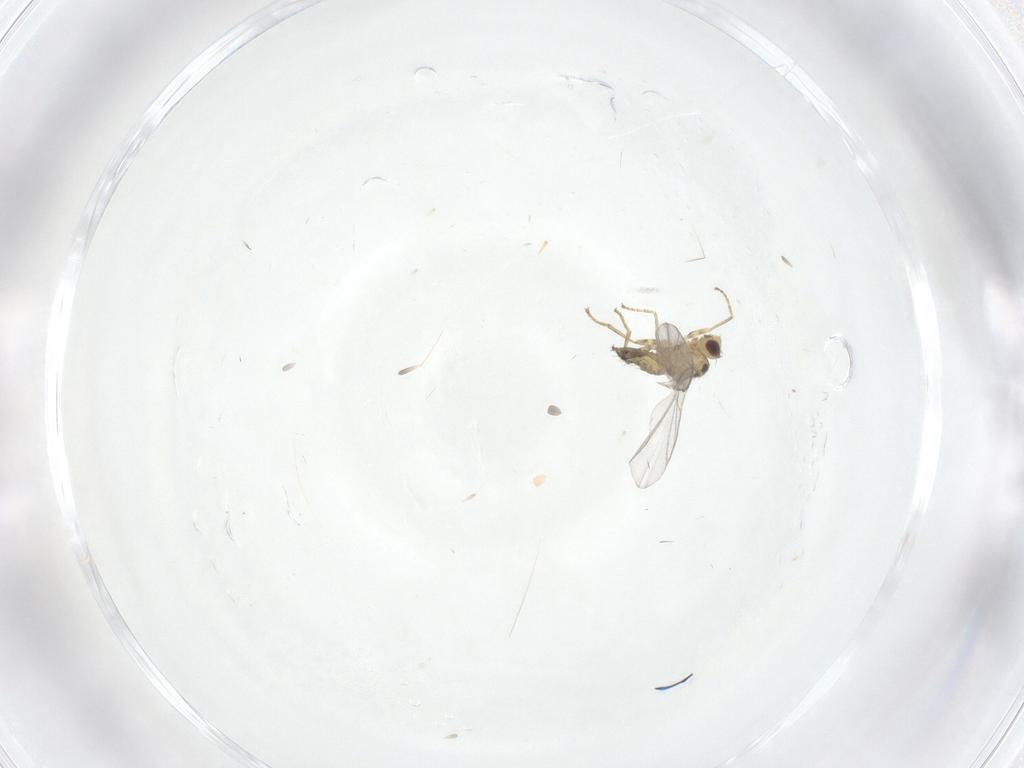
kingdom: Animalia
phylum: Arthropoda
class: Insecta
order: Diptera
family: Agromyzidae
